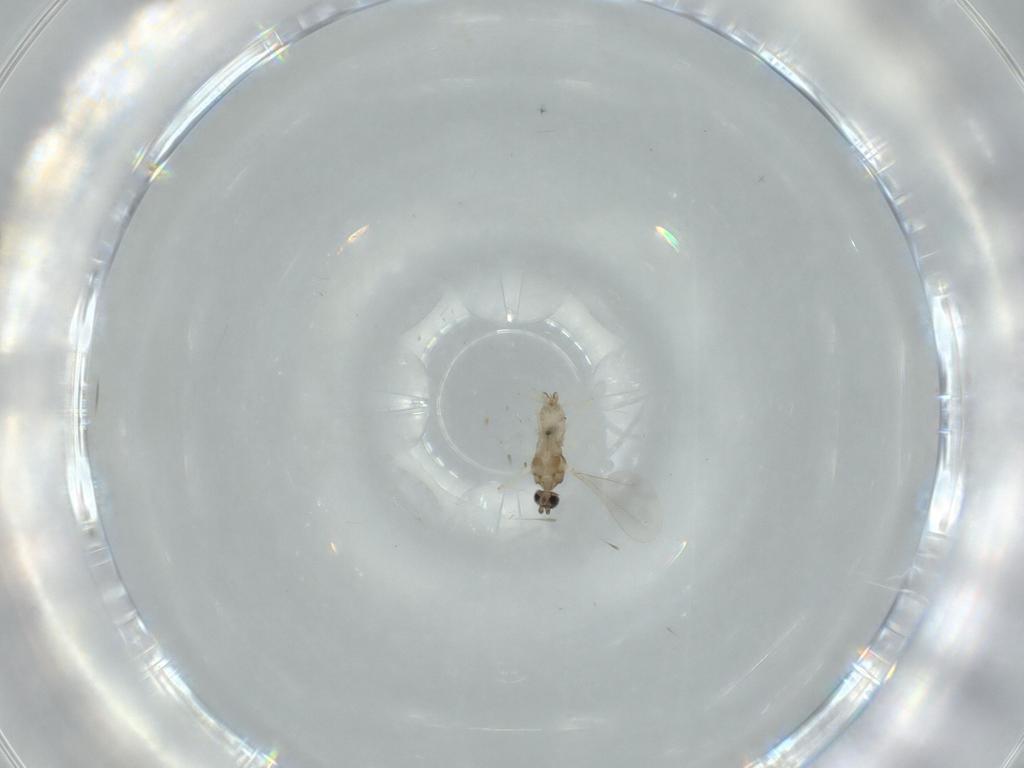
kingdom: Animalia
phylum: Arthropoda
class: Insecta
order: Diptera
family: Cecidomyiidae
